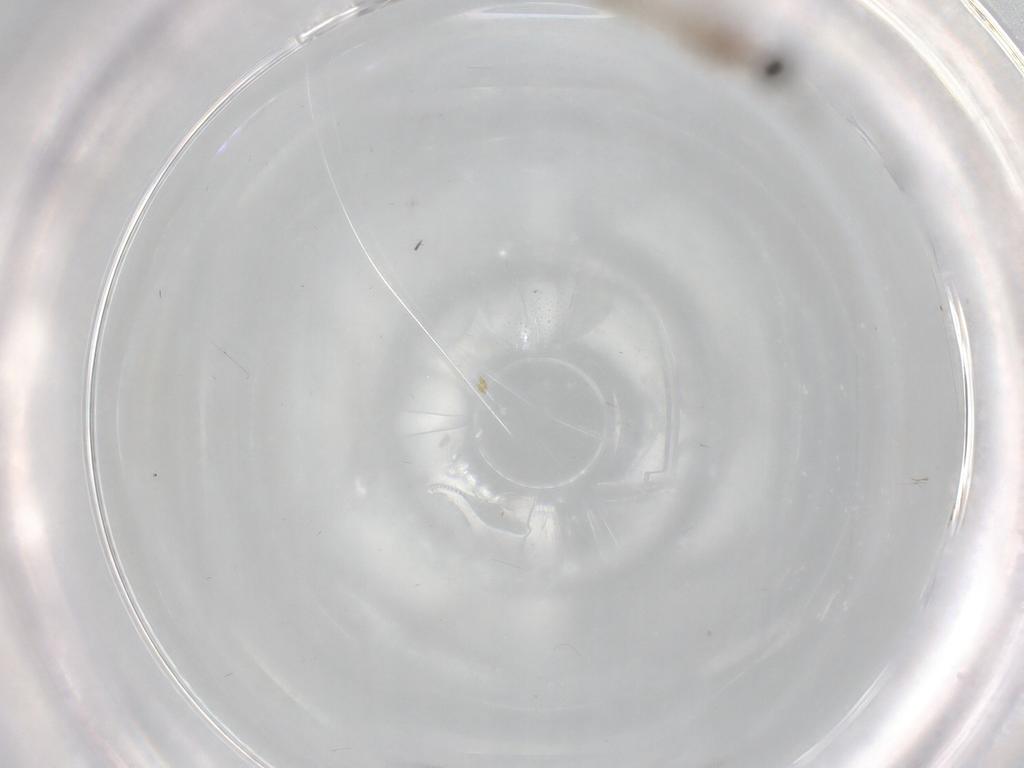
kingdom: Animalia
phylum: Arthropoda
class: Insecta
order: Diptera
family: Cecidomyiidae
